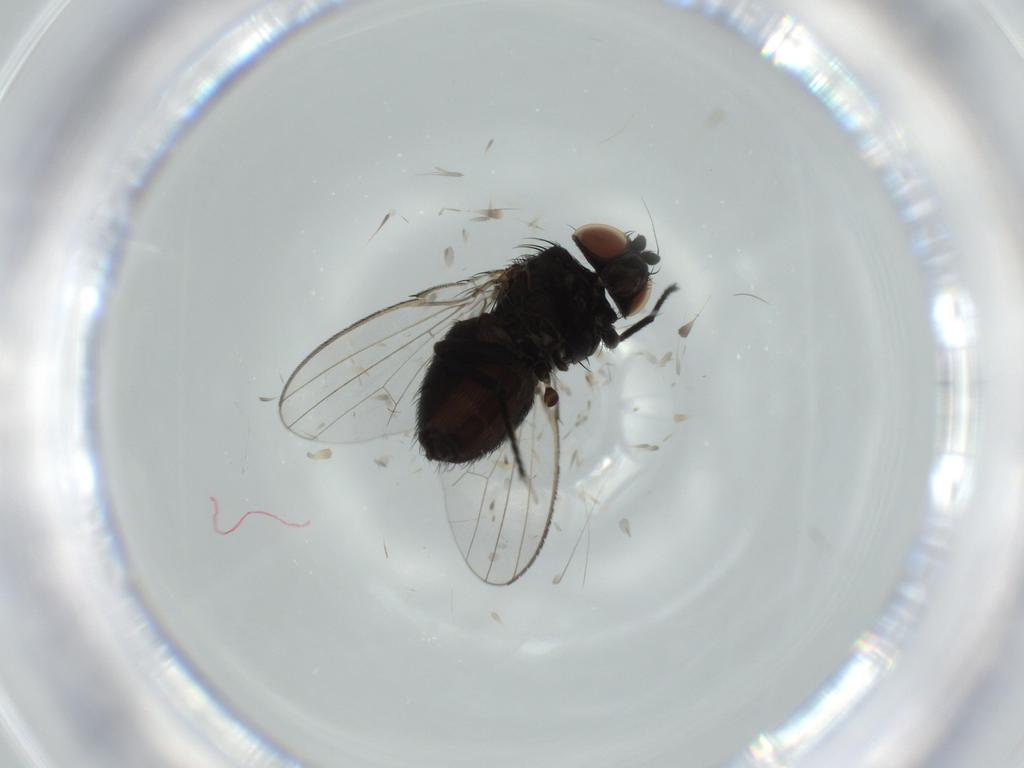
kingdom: Animalia
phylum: Arthropoda
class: Insecta
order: Diptera
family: Milichiidae
